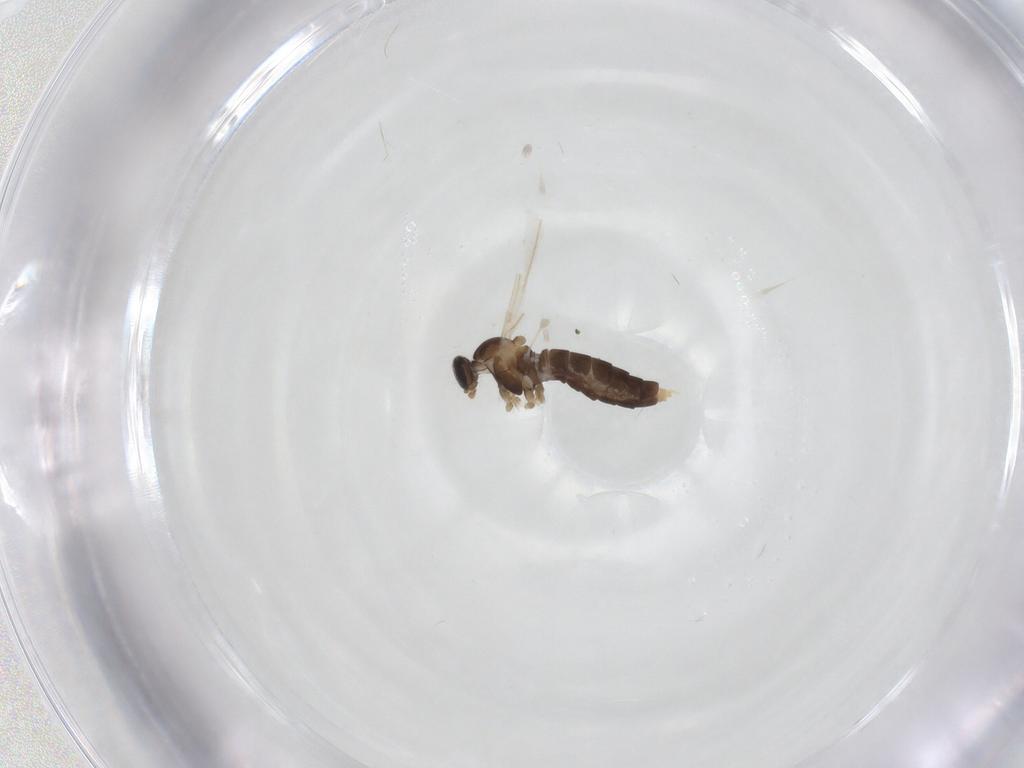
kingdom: Animalia
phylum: Arthropoda
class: Insecta
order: Diptera
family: Cecidomyiidae
